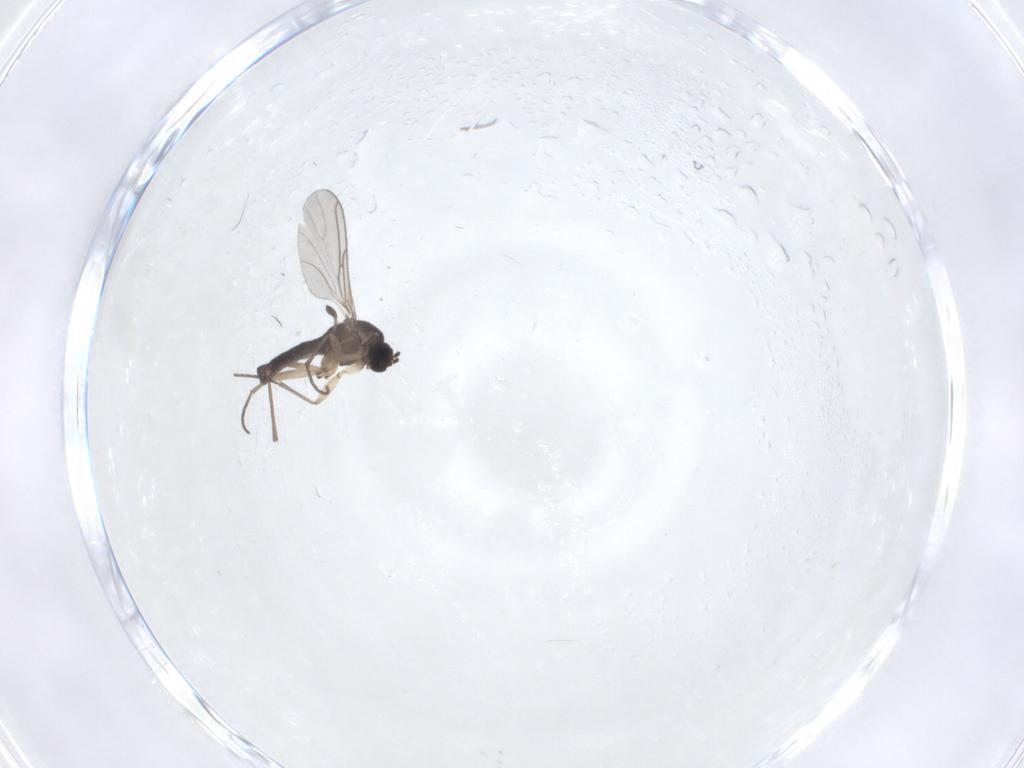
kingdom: Animalia
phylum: Arthropoda
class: Insecta
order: Diptera
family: Sciaridae
